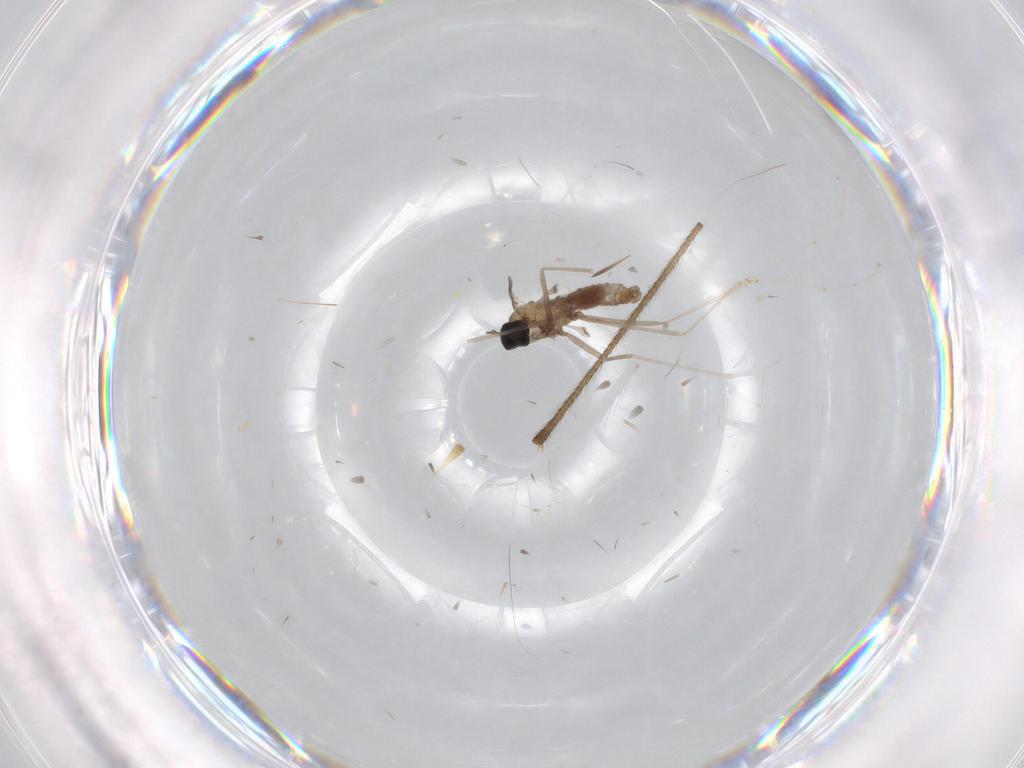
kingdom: Animalia
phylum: Arthropoda
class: Insecta
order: Diptera
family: Cecidomyiidae
